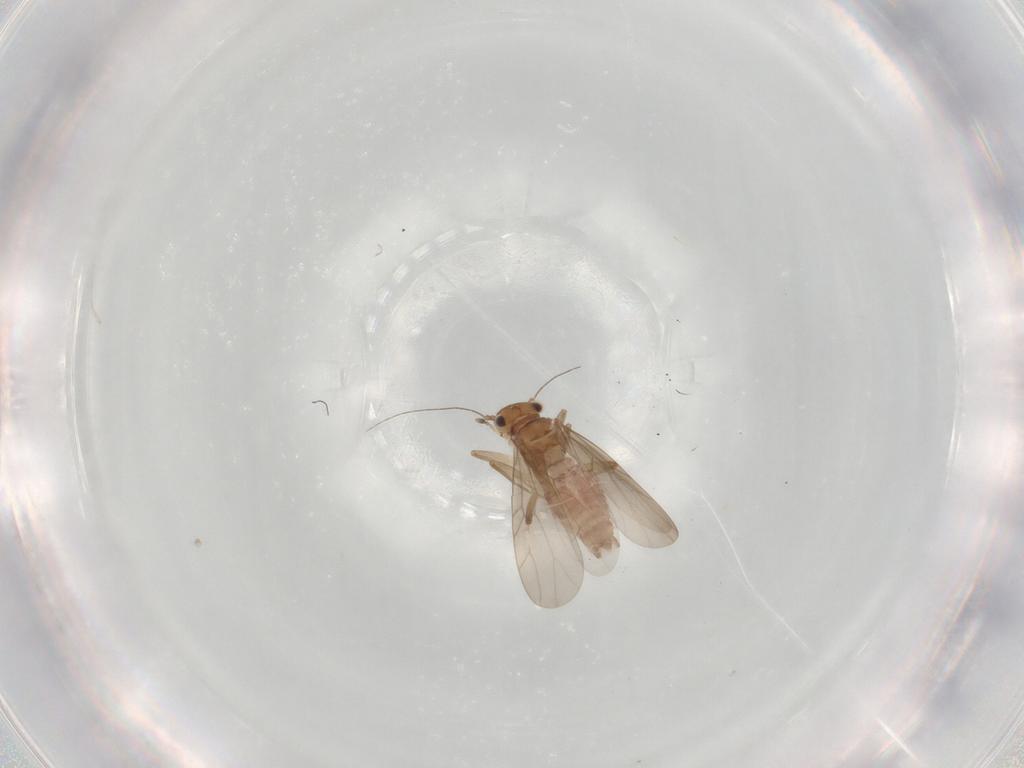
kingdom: Animalia
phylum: Arthropoda
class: Insecta
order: Psocodea
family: Lepidopsocidae
